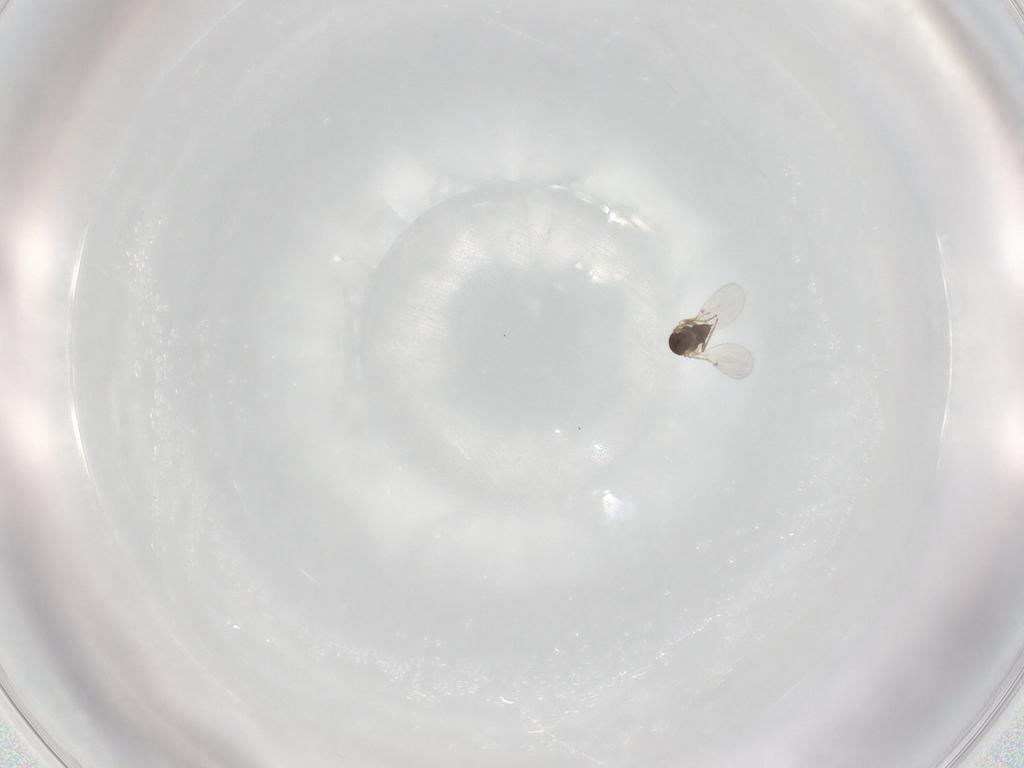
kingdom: Animalia
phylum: Arthropoda
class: Insecta
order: Hymenoptera
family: Encyrtidae
